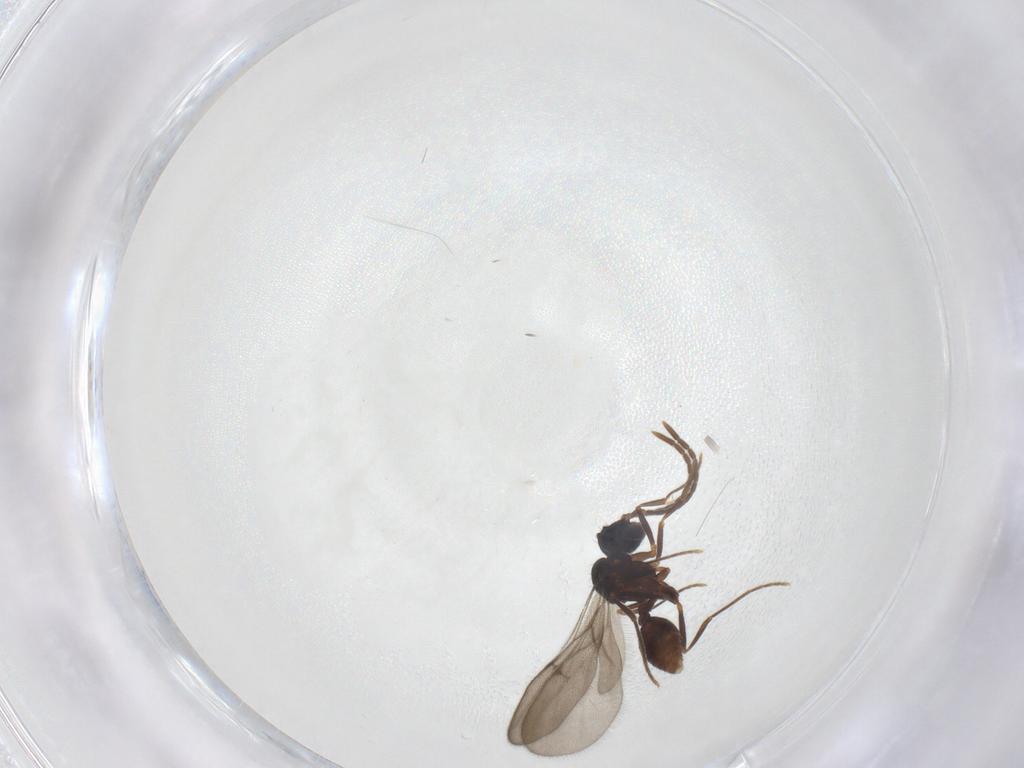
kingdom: Animalia
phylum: Arthropoda
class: Insecta
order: Hymenoptera
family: Formicidae
